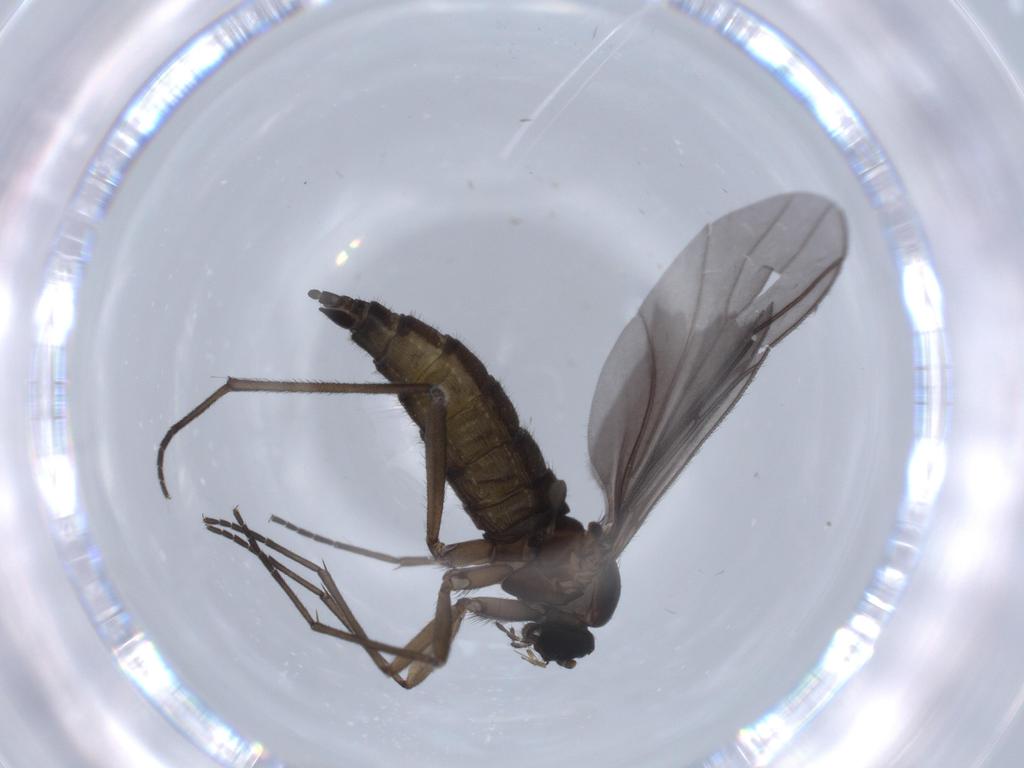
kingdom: Animalia
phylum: Arthropoda
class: Insecta
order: Diptera
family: Sciaridae
